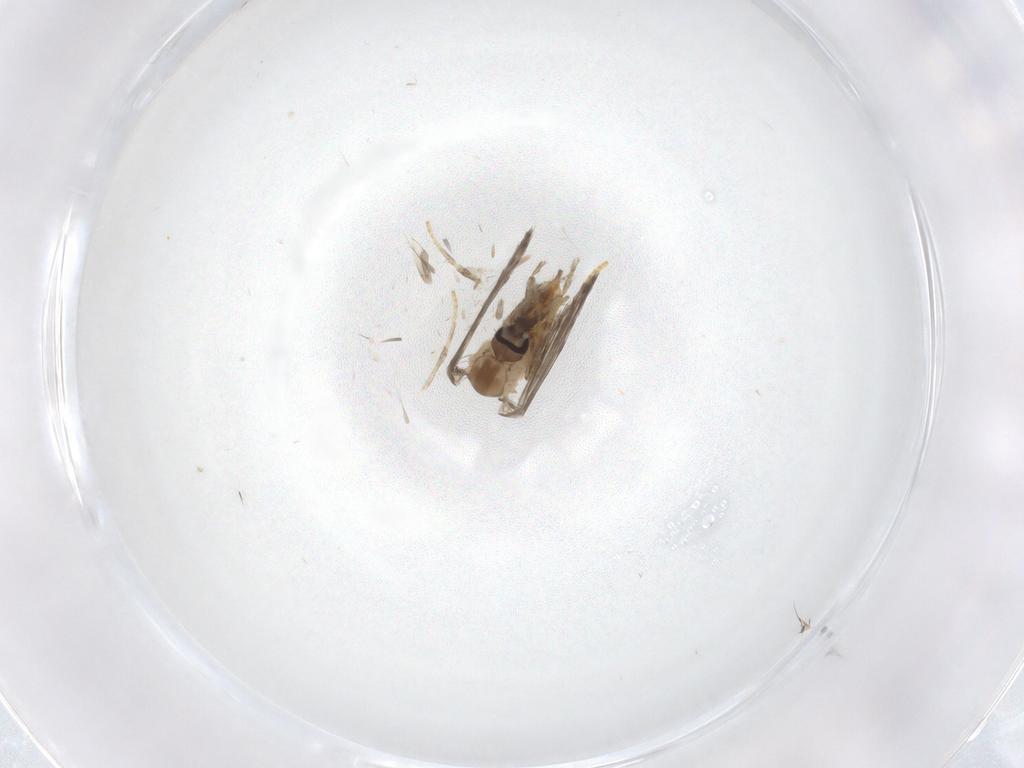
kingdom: Animalia
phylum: Arthropoda
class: Insecta
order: Diptera
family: Psychodidae
